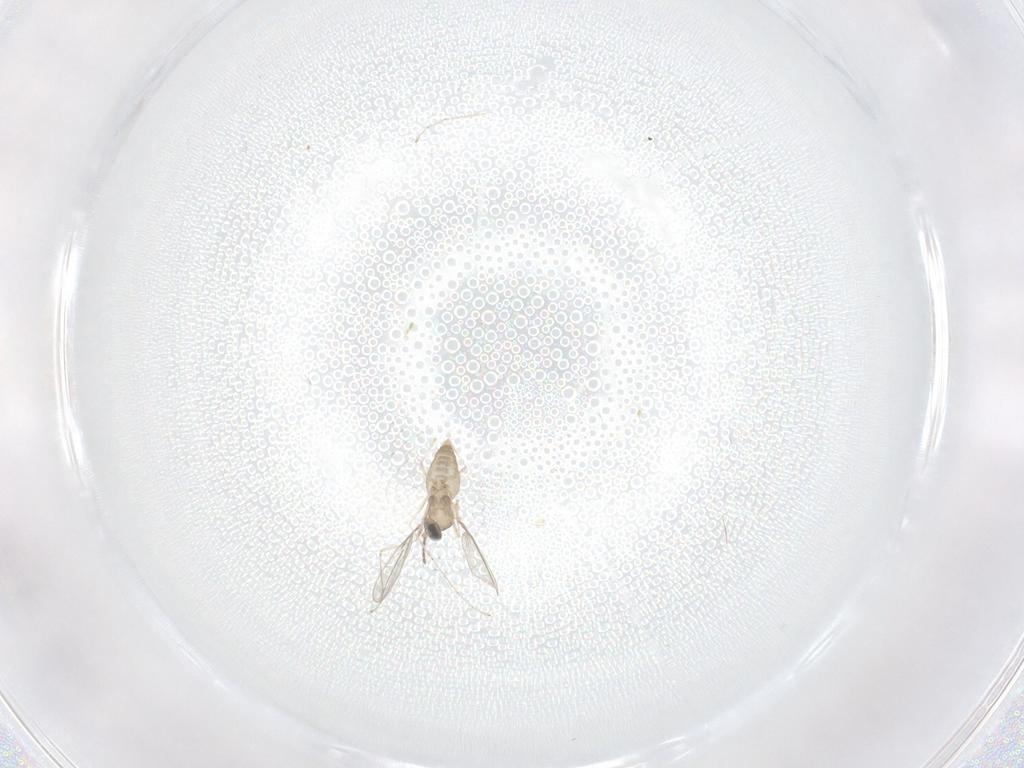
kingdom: Animalia
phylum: Arthropoda
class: Insecta
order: Diptera
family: Cecidomyiidae
